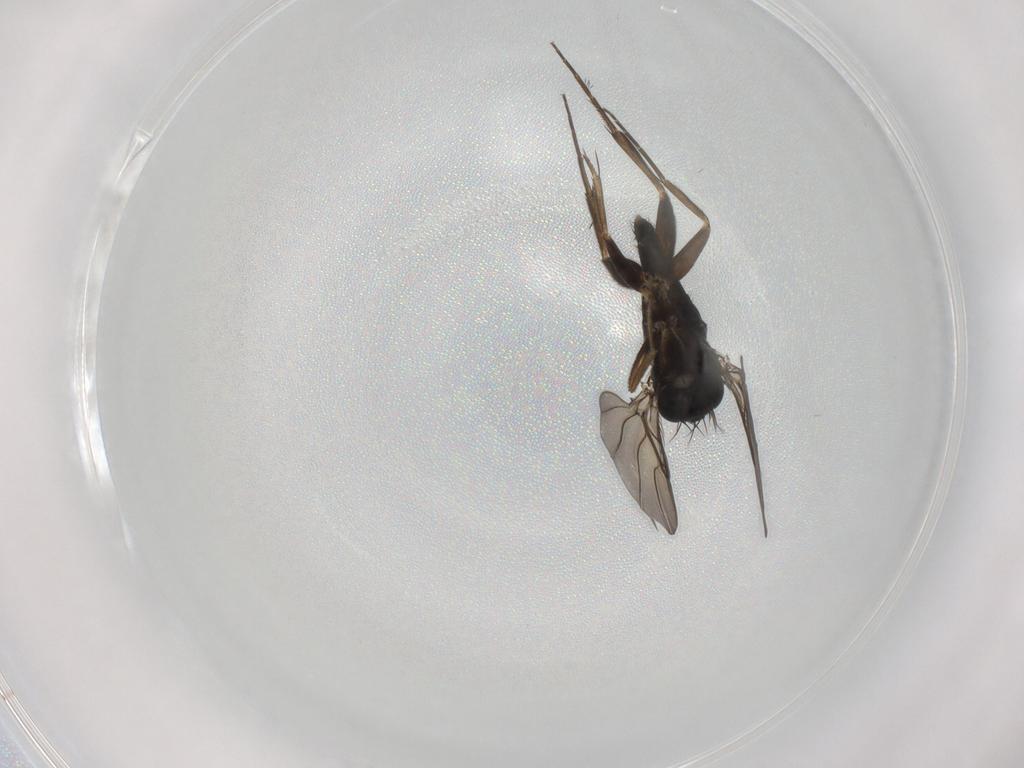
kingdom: Animalia
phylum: Arthropoda
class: Insecta
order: Diptera
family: Phoridae
